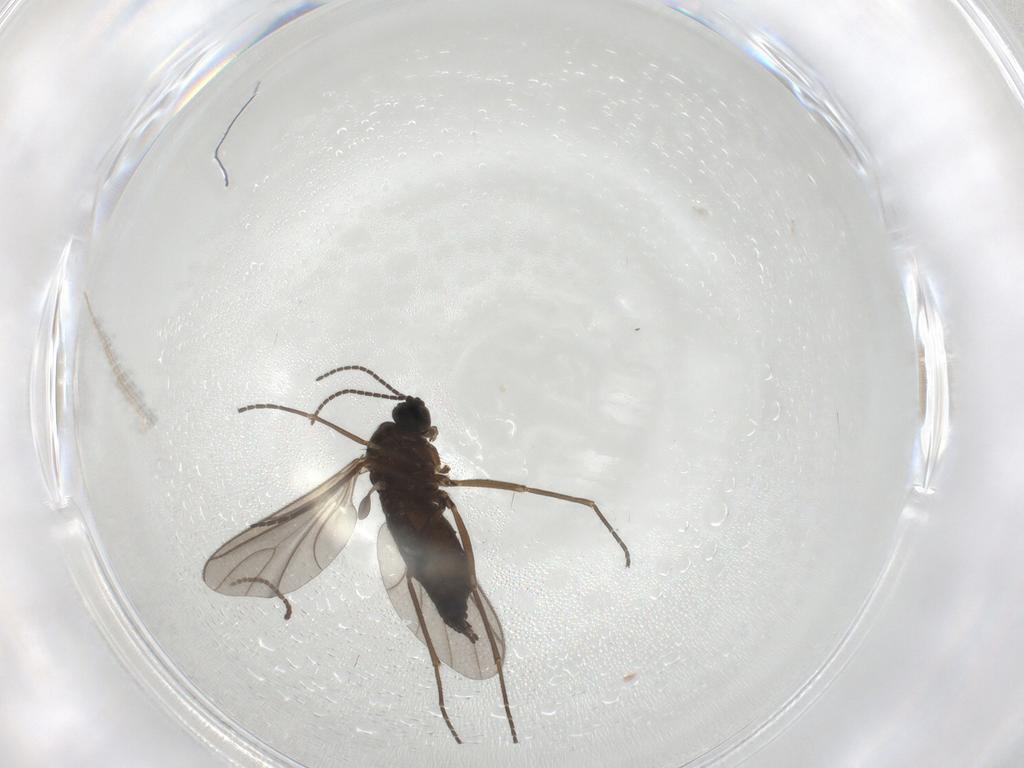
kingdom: Animalia
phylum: Arthropoda
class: Insecta
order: Diptera
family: Sciaridae
